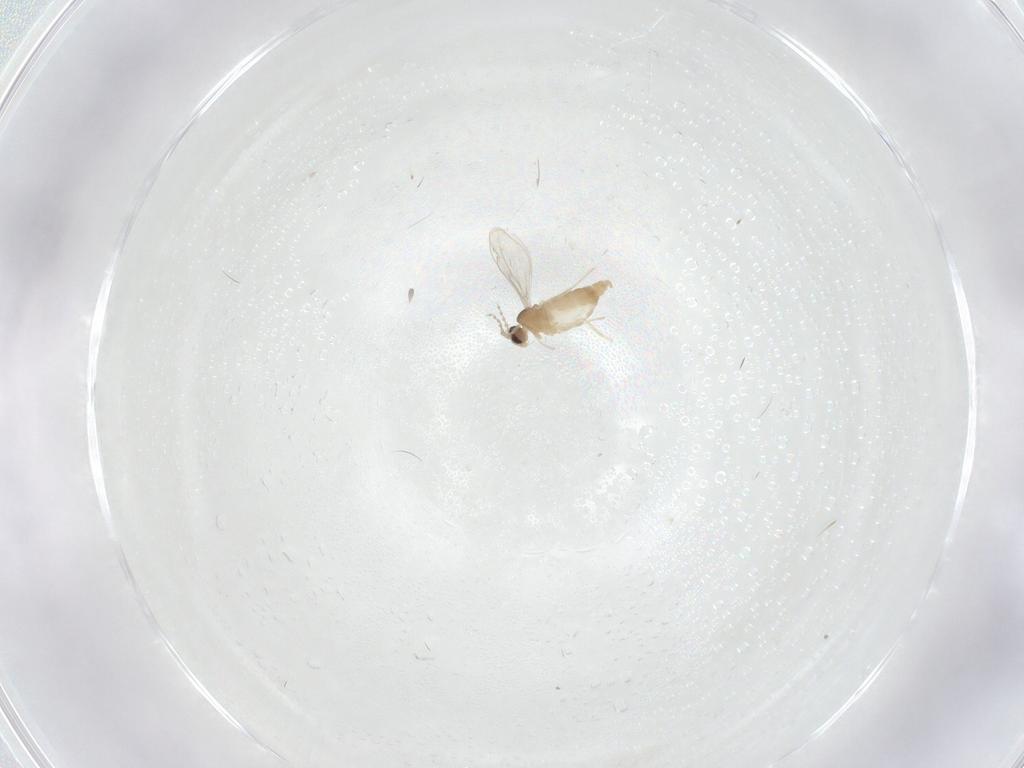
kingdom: Animalia
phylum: Arthropoda
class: Insecta
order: Diptera
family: Cecidomyiidae
